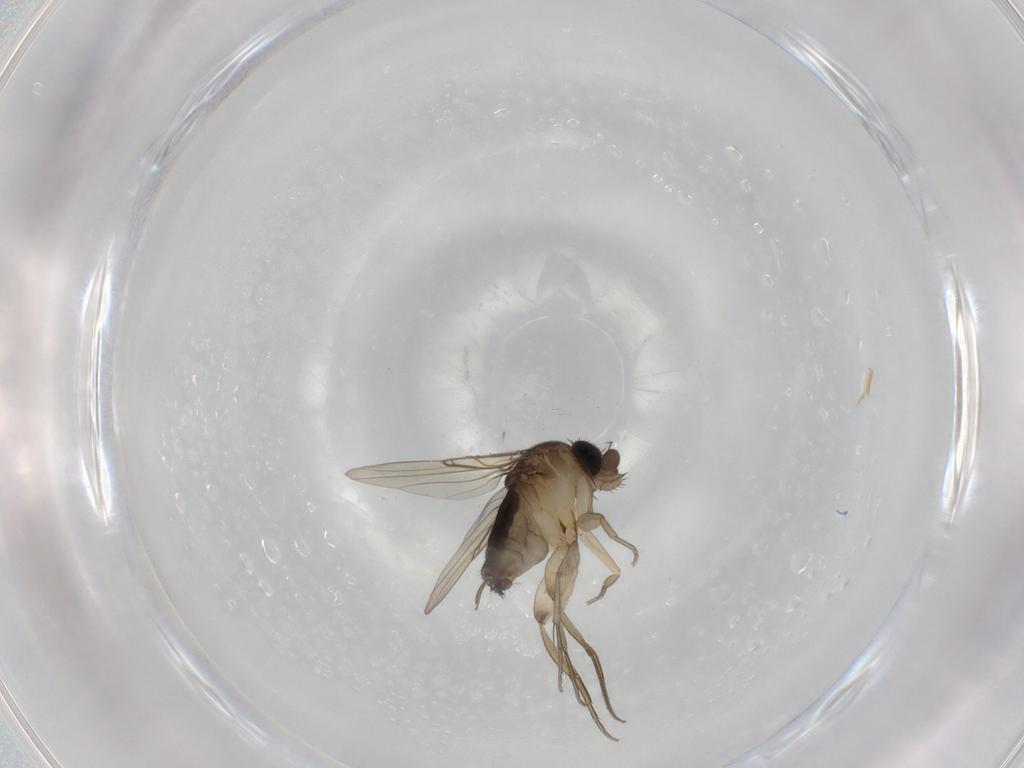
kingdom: Animalia
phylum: Arthropoda
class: Insecta
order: Diptera
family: Phoridae
